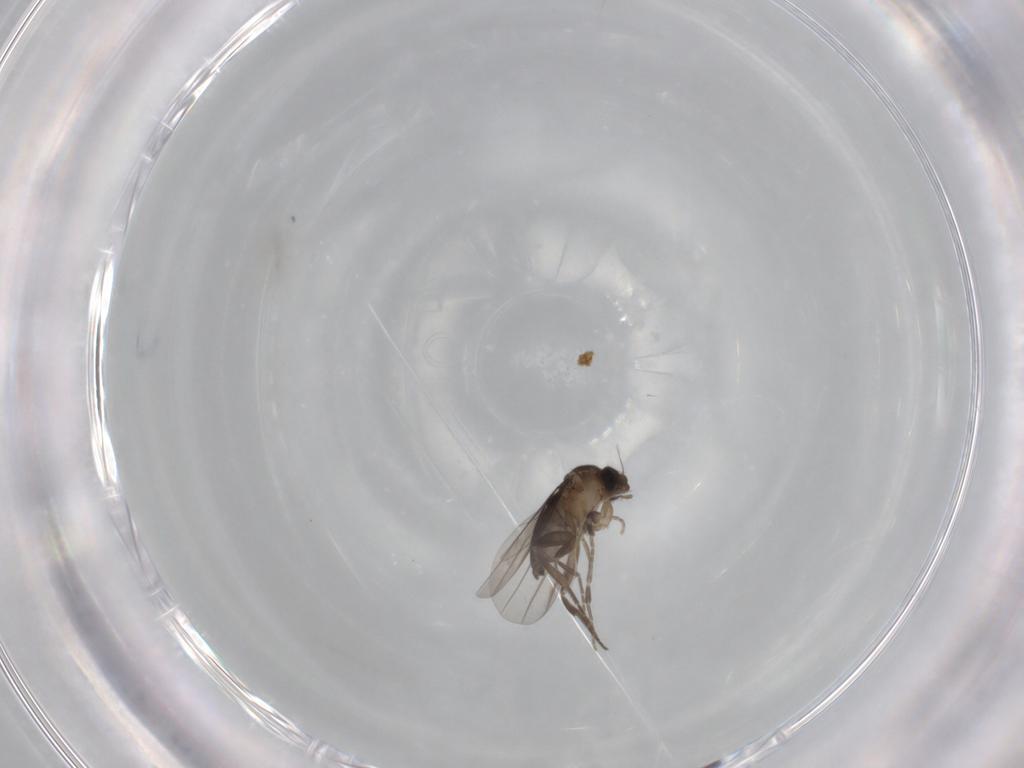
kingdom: Animalia
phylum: Arthropoda
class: Insecta
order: Diptera
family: Phoridae
